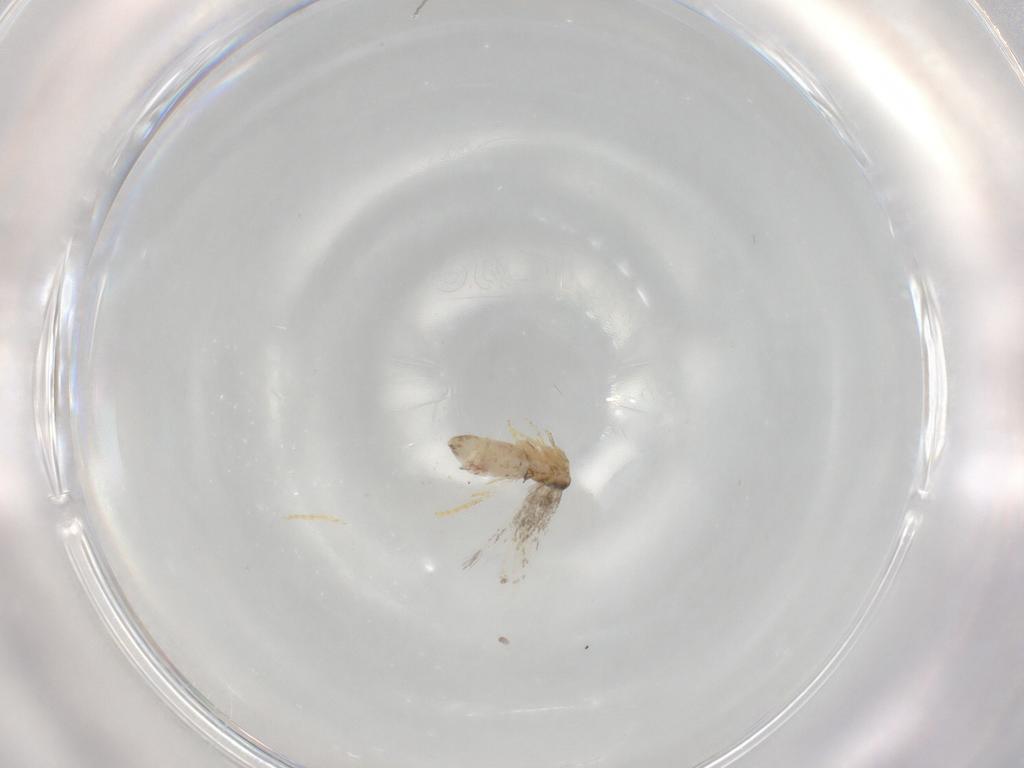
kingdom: Animalia
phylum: Arthropoda
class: Insecta
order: Lepidoptera
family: Nepticulidae
